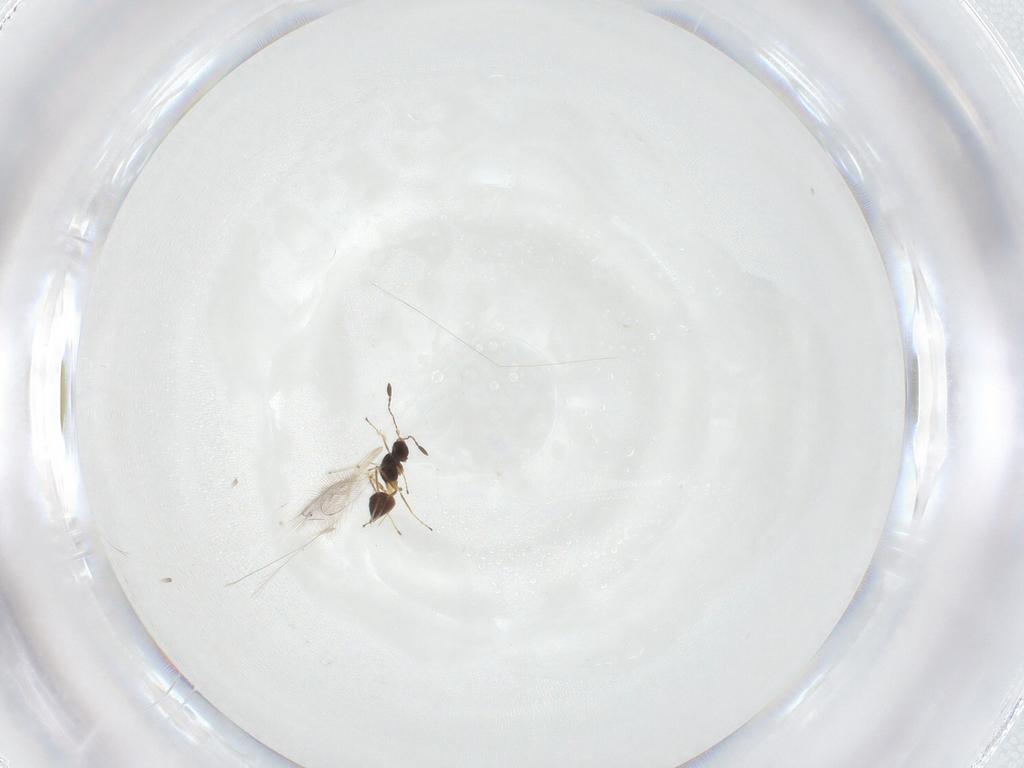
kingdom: Animalia
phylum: Arthropoda
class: Insecta
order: Hymenoptera
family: Mymaridae
